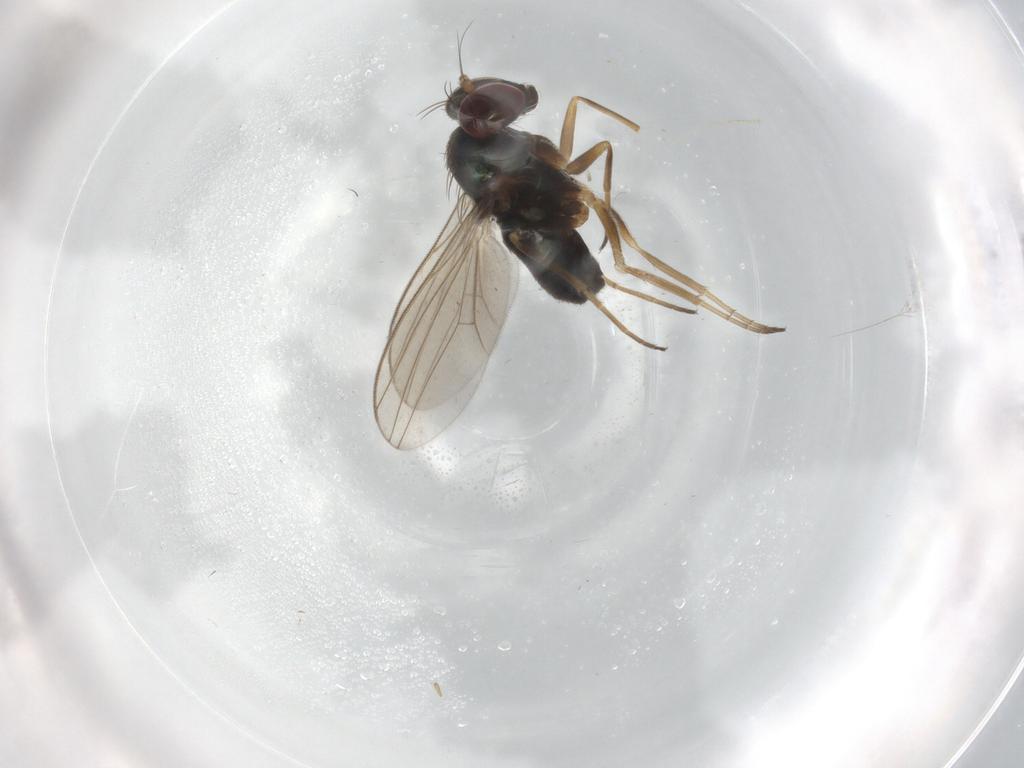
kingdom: Animalia
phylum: Arthropoda
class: Insecta
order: Diptera
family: Dolichopodidae
